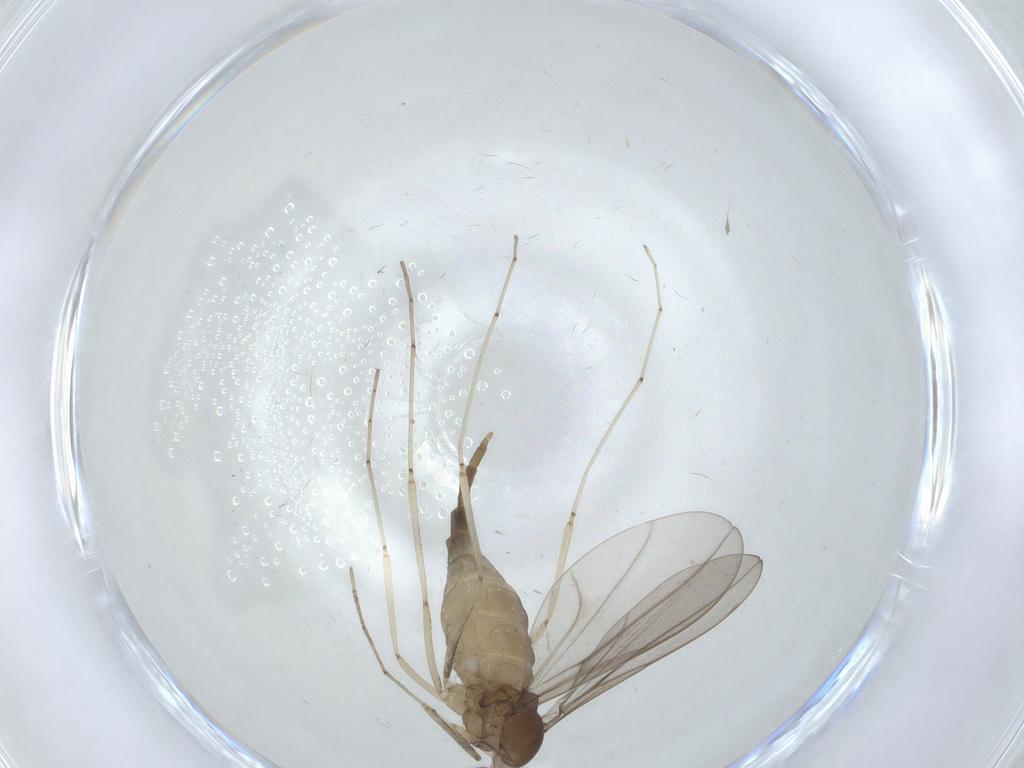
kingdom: Animalia
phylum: Arthropoda
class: Insecta
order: Diptera
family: Cecidomyiidae
